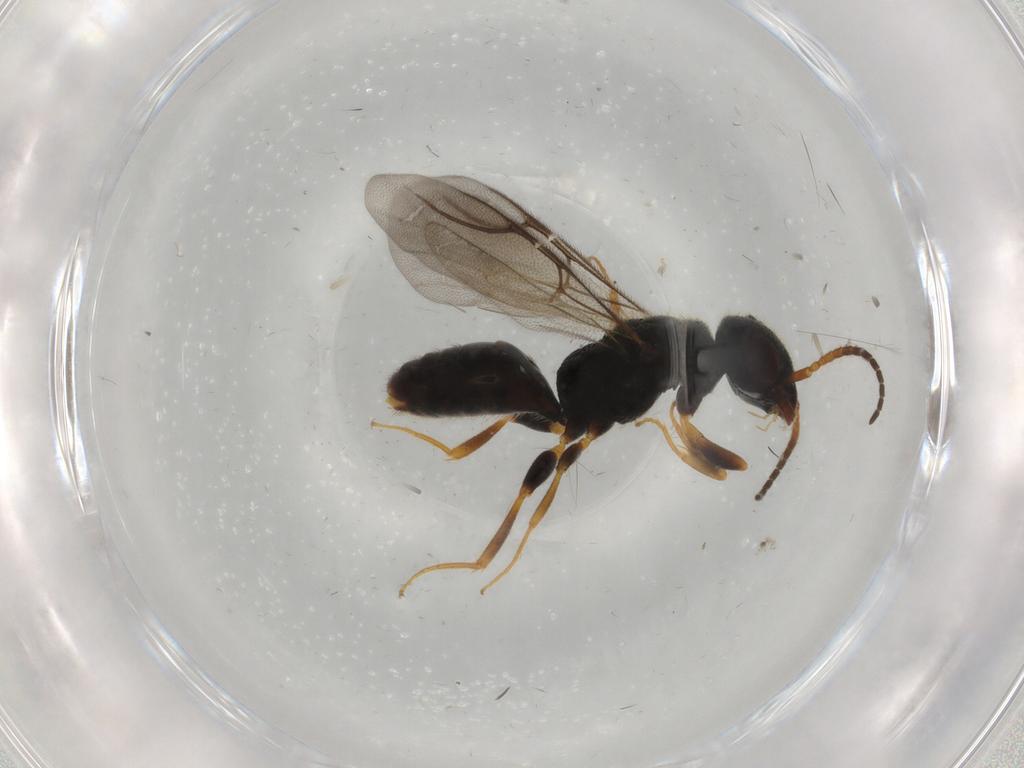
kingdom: Animalia
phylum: Arthropoda
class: Insecta
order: Hymenoptera
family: Bethylidae
